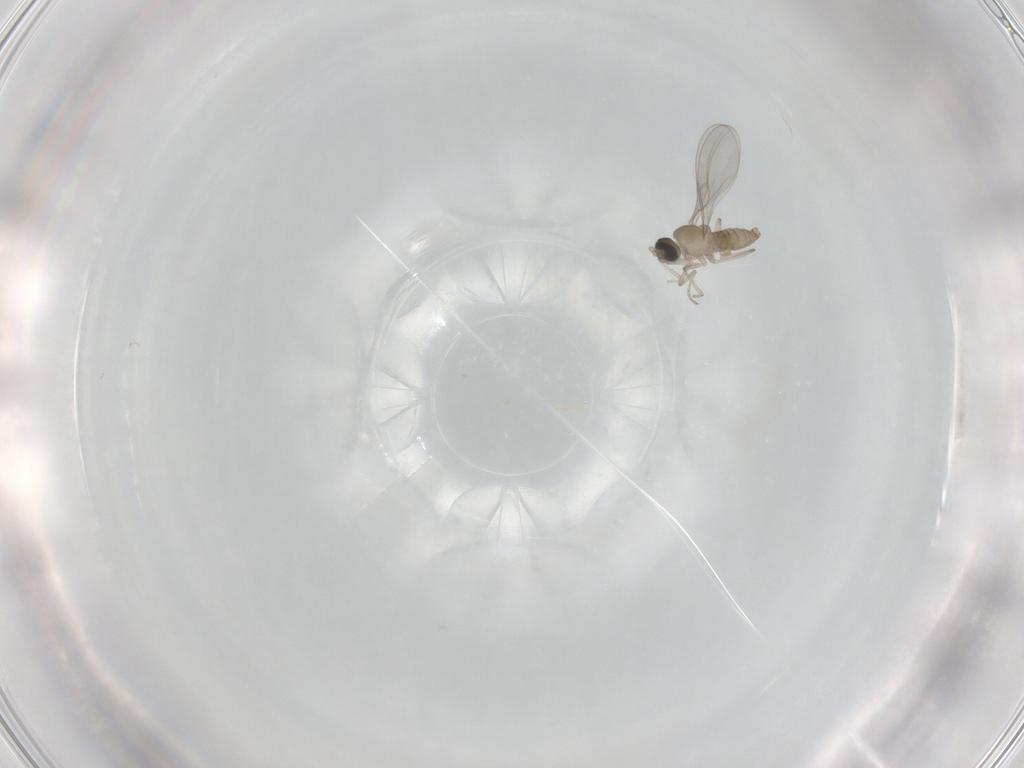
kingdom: Animalia
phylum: Arthropoda
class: Insecta
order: Diptera
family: Cecidomyiidae
